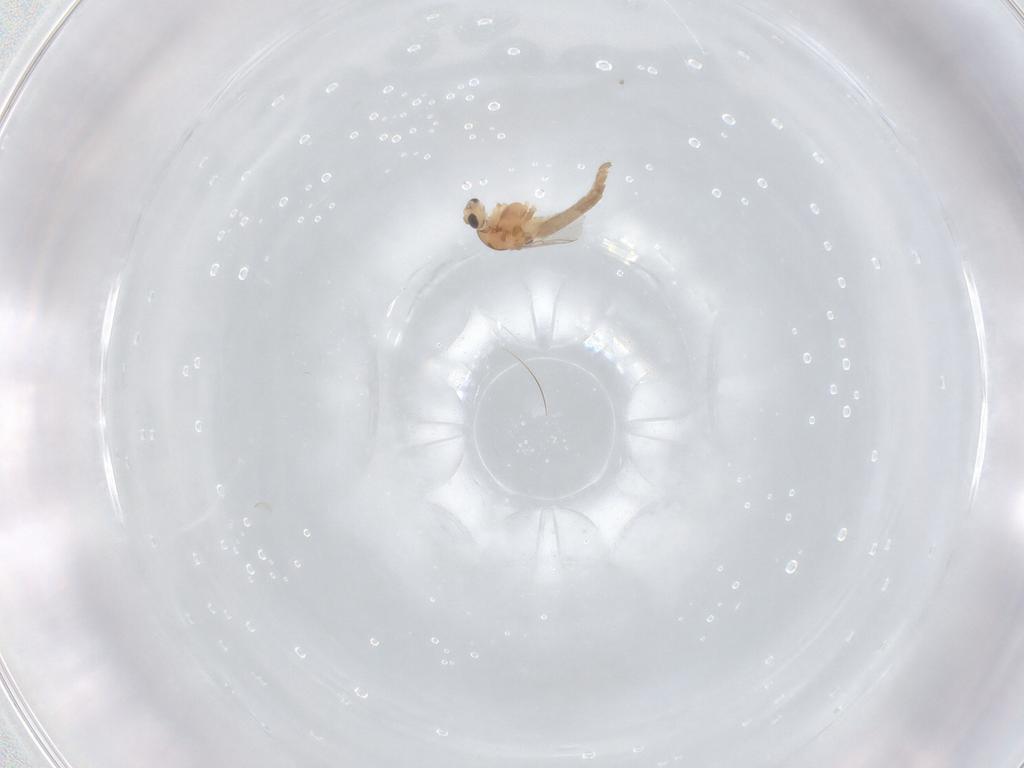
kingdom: Animalia
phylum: Arthropoda
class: Insecta
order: Diptera
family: Chironomidae
